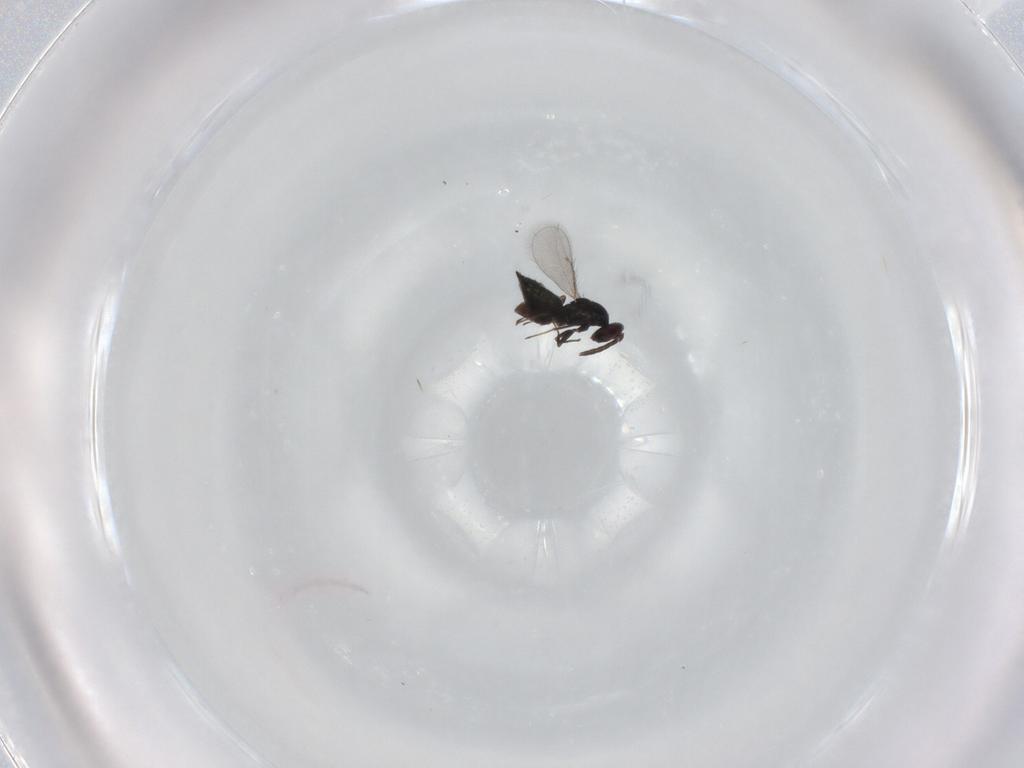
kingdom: Animalia
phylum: Arthropoda
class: Insecta
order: Hymenoptera
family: Eulophidae
